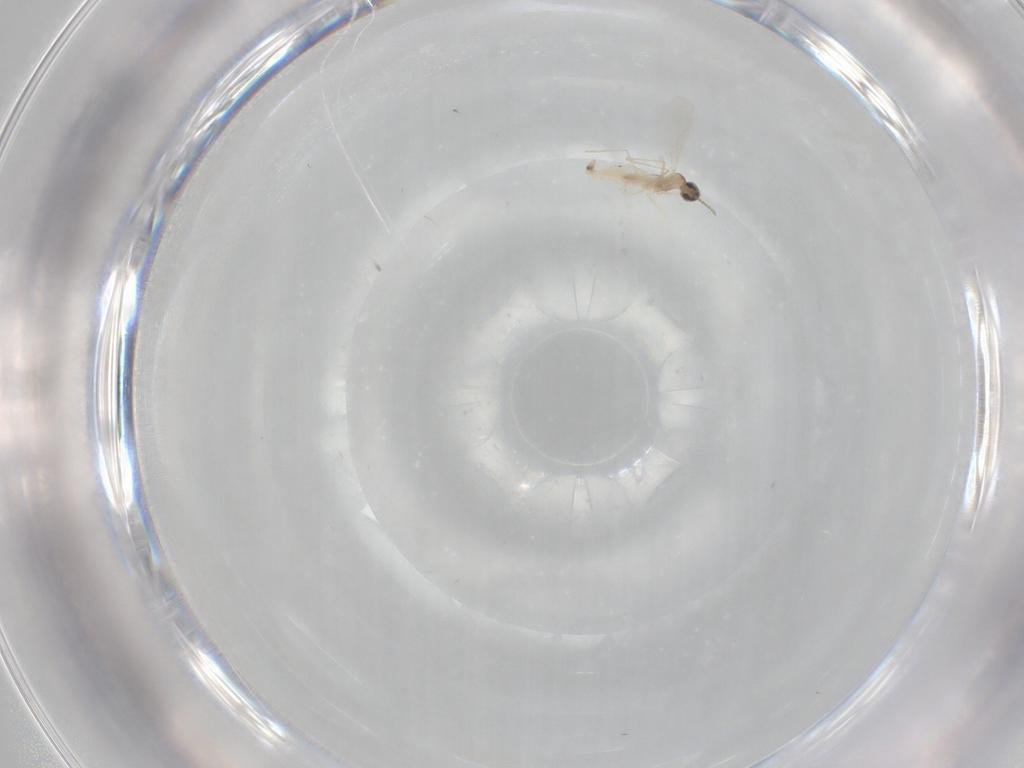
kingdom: Animalia
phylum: Arthropoda
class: Insecta
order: Diptera
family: Cecidomyiidae
